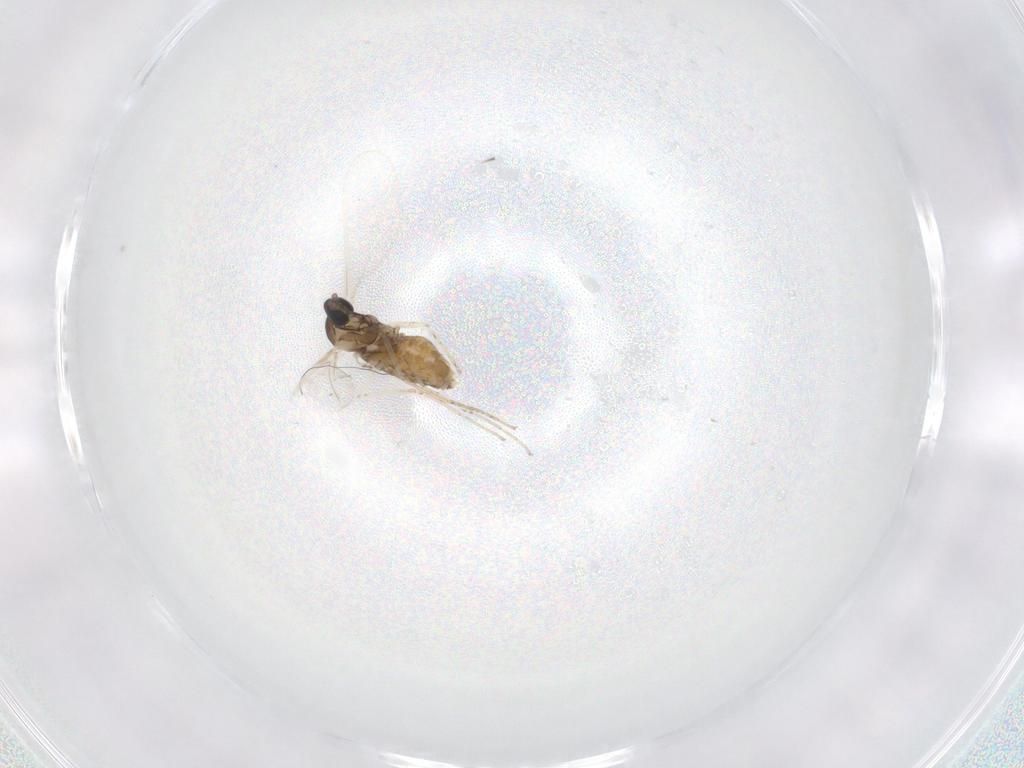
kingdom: Animalia
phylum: Arthropoda
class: Insecta
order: Diptera
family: Cecidomyiidae
